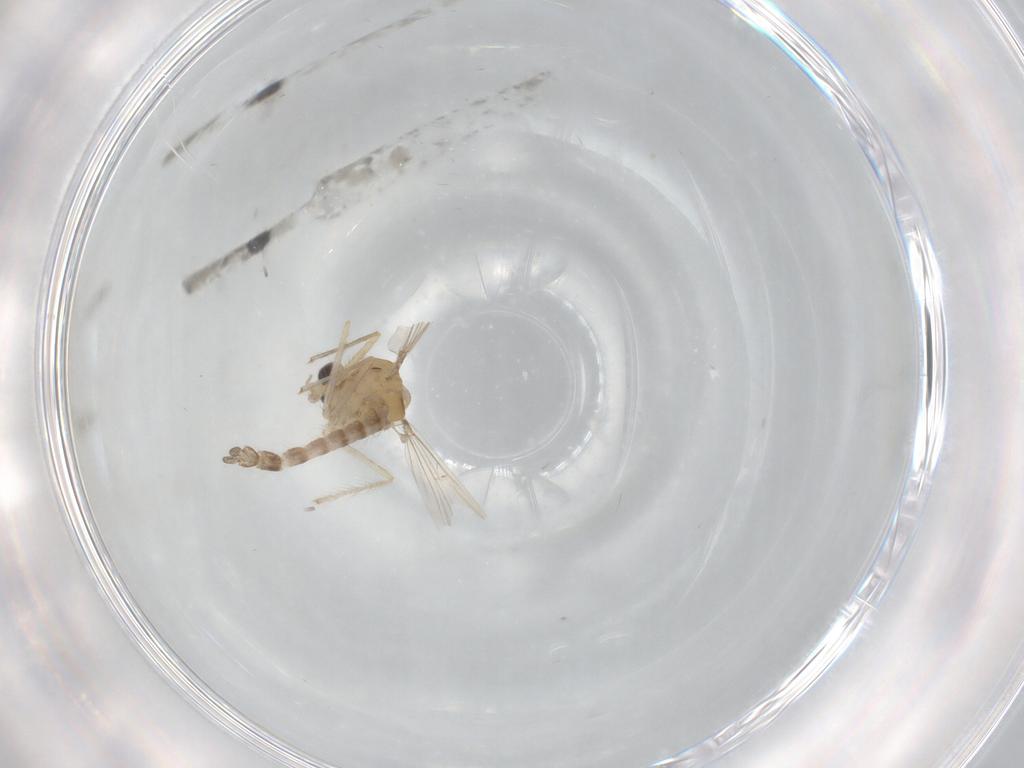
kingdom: Animalia
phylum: Arthropoda
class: Insecta
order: Diptera
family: Chironomidae
